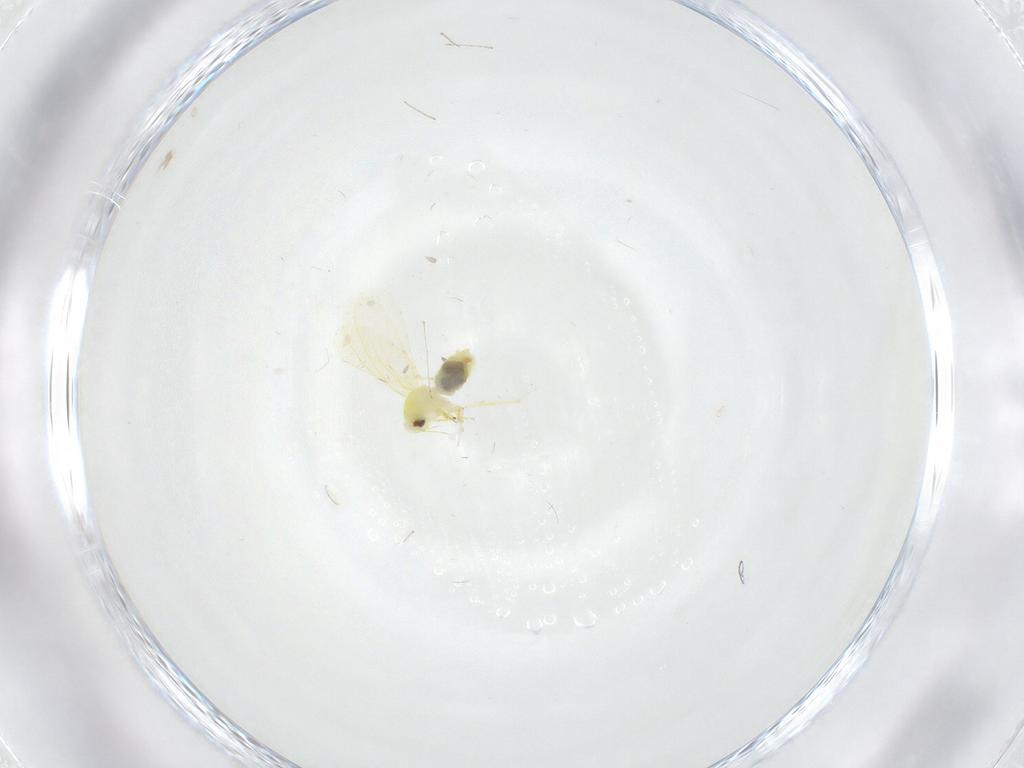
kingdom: Animalia
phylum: Arthropoda
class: Insecta
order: Hemiptera
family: Aleyrodidae
